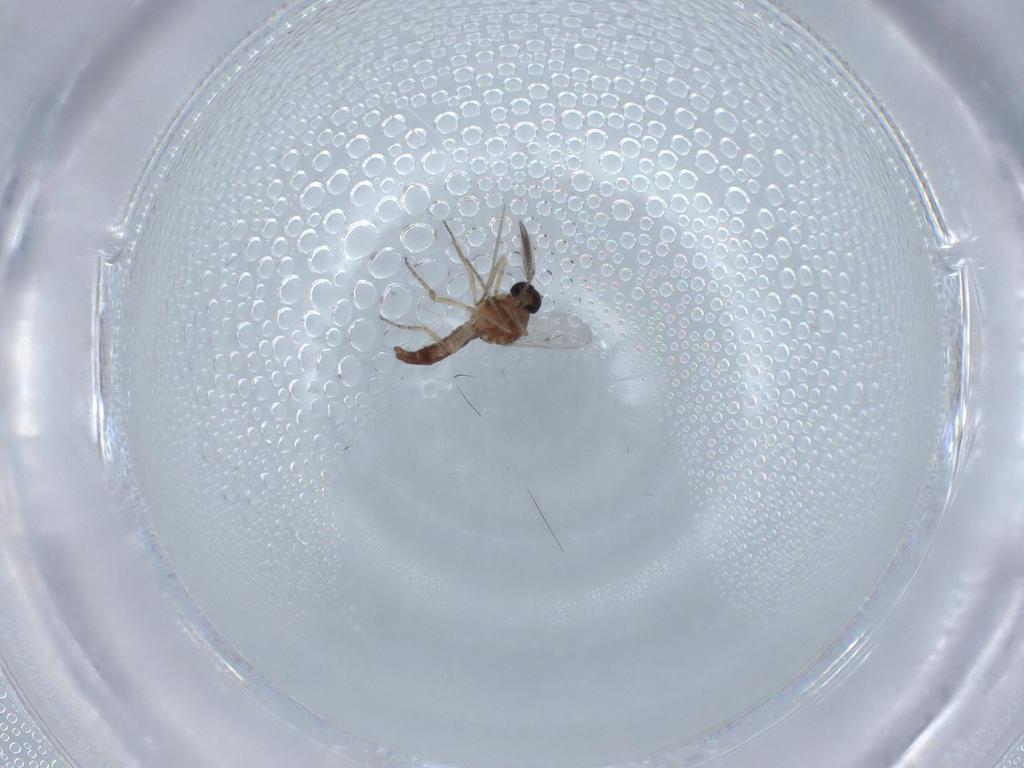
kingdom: Animalia
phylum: Arthropoda
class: Insecta
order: Diptera
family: Ceratopogonidae
